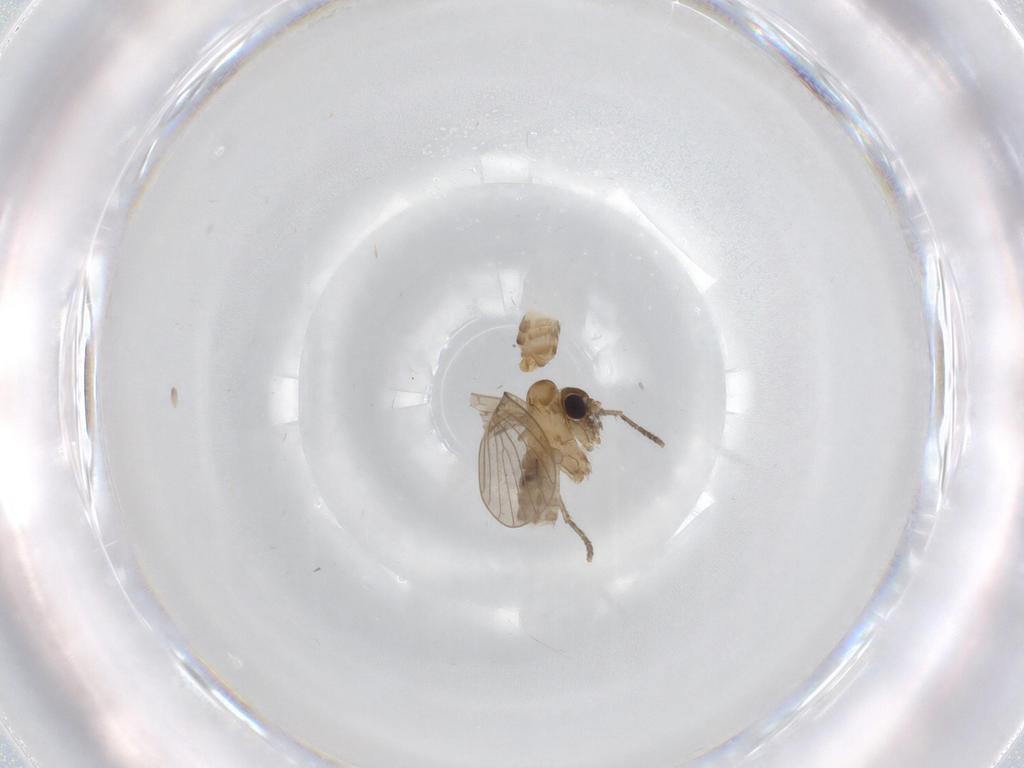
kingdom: Animalia
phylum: Arthropoda
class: Insecta
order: Diptera
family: Psychodidae
